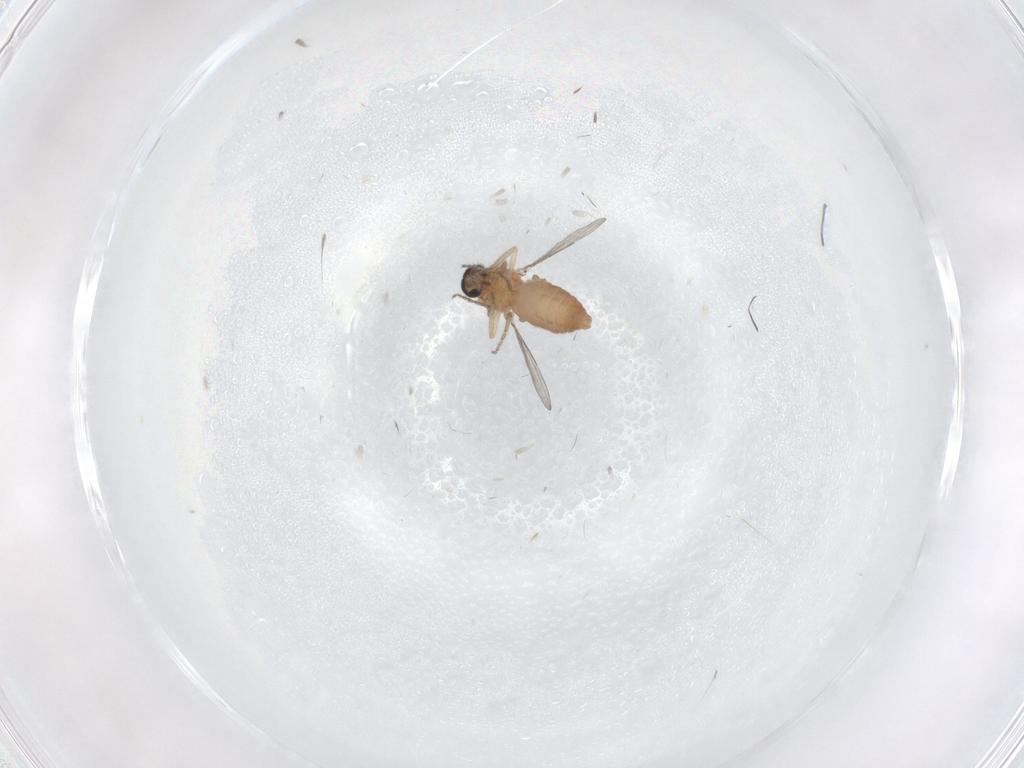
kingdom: Animalia
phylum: Arthropoda
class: Insecta
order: Diptera
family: Ceratopogonidae
